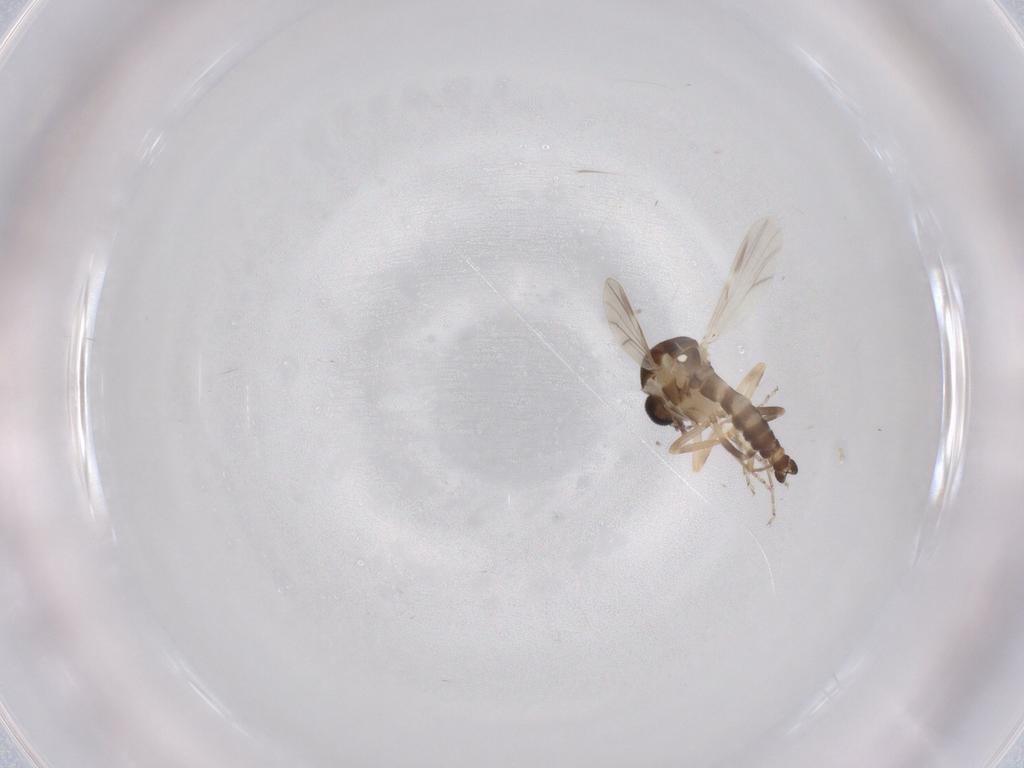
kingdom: Animalia
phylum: Arthropoda
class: Insecta
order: Diptera
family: Ceratopogonidae
